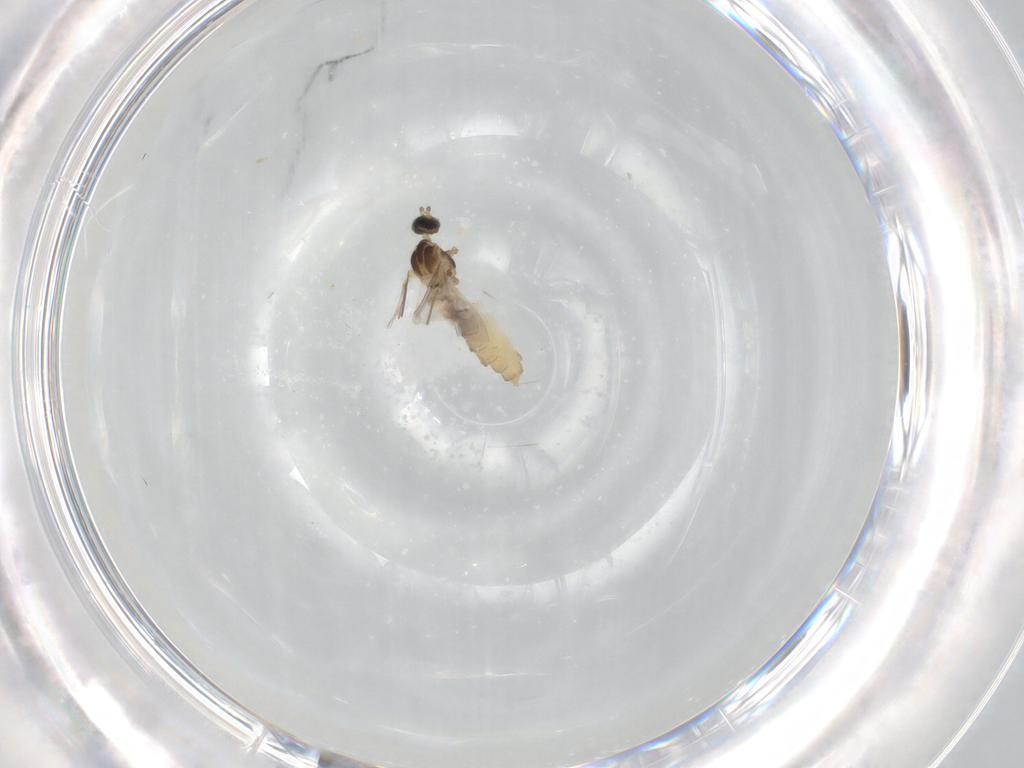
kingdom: Animalia
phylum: Arthropoda
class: Insecta
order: Diptera
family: Cecidomyiidae
